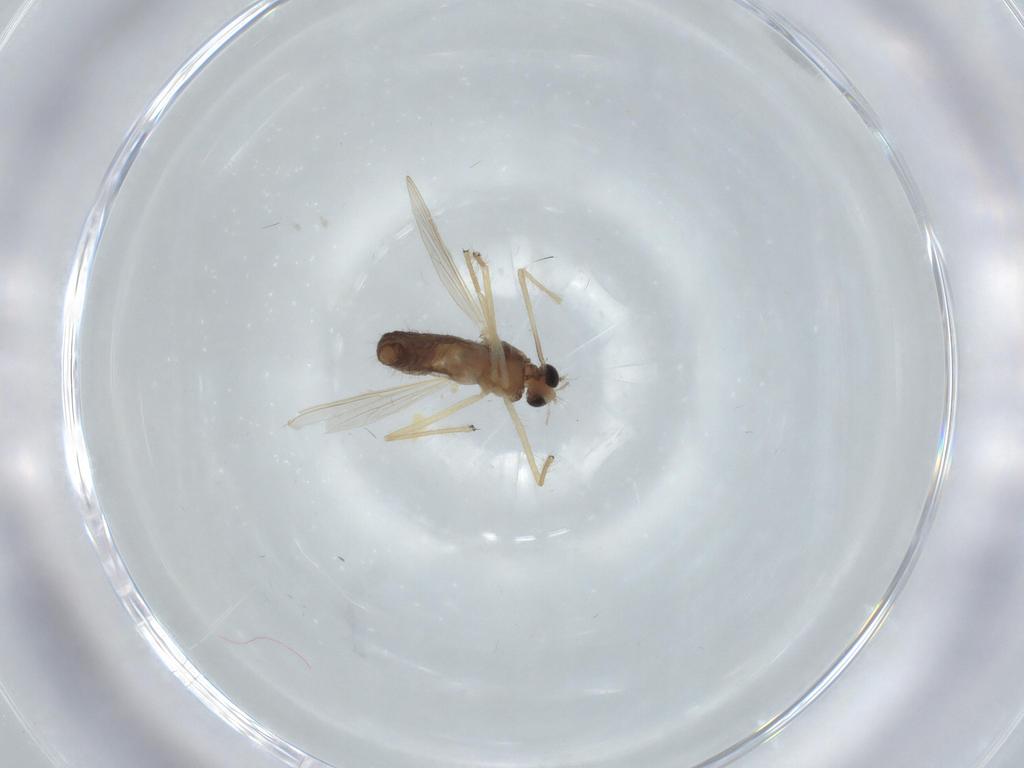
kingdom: Animalia
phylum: Arthropoda
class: Insecta
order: Diptera
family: Chironomidae
